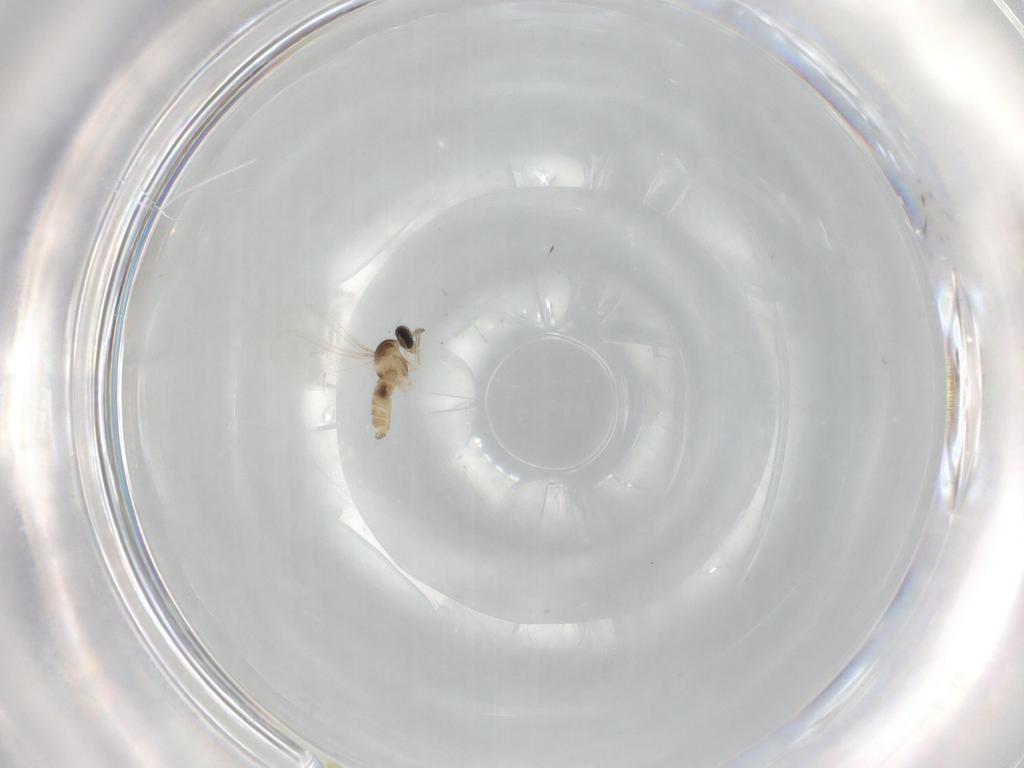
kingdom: Animalia
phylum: Arthropoda
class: Insecta
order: Diptera
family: Cecidomyiidae
